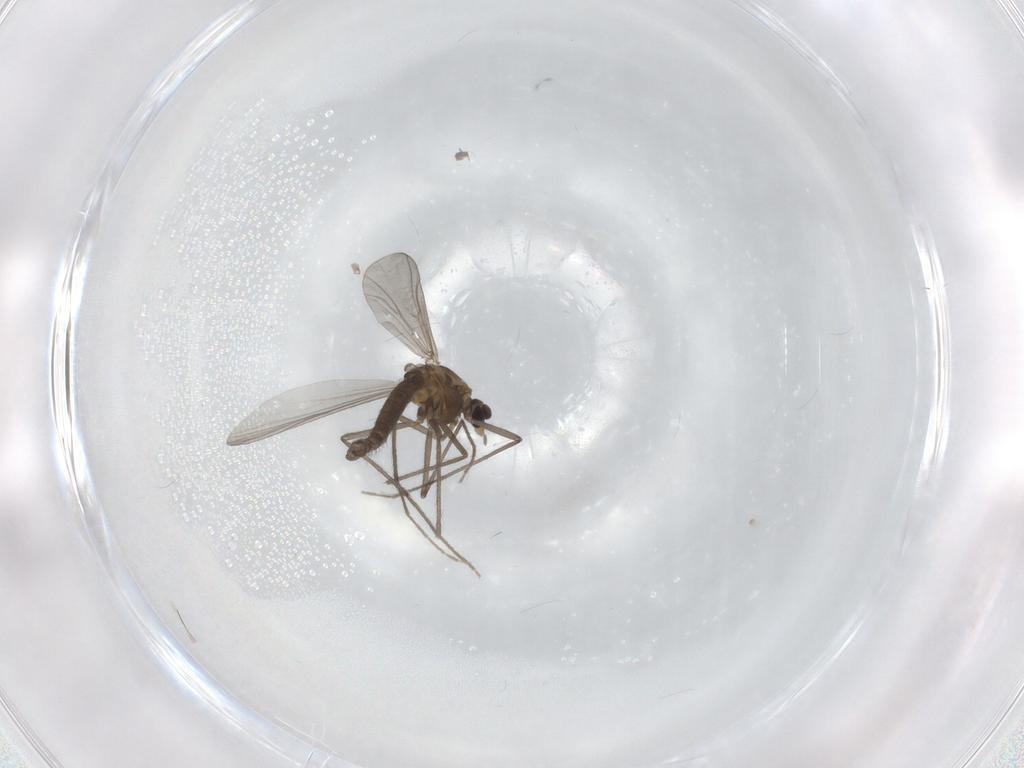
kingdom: Animalia
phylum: Arthropoda
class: Insecta
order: Diptera
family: Cecidomyiidae
